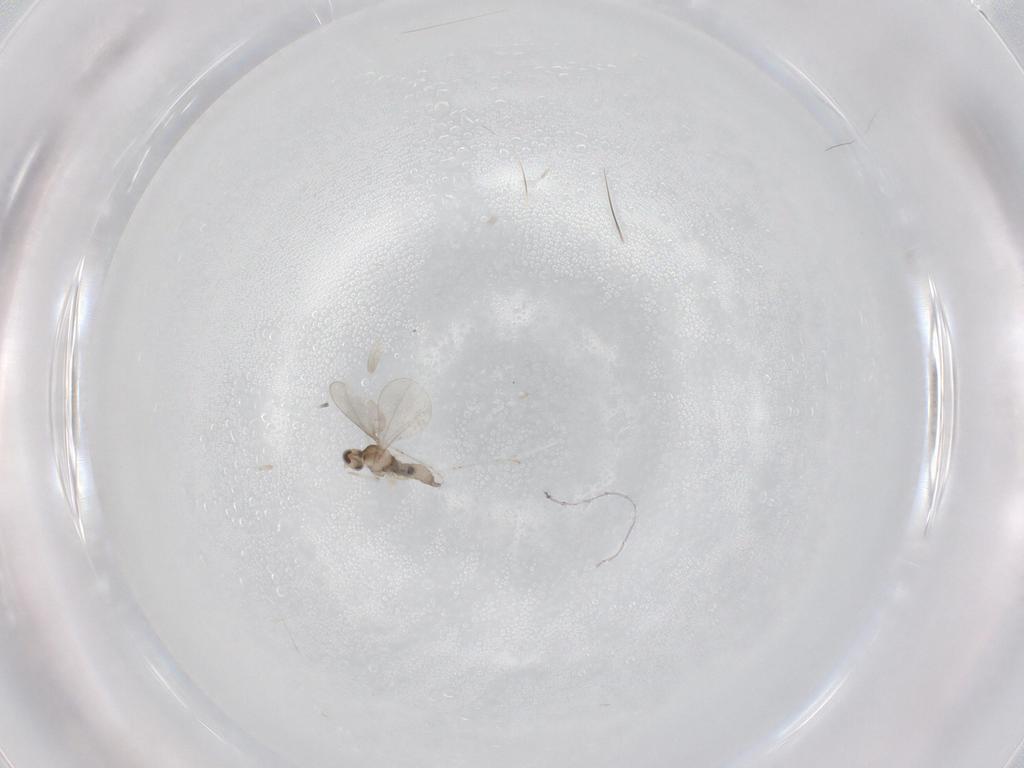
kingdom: Animalia
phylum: Arthropoda
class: Insecta
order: Diptera
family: Cecidomyiidae
